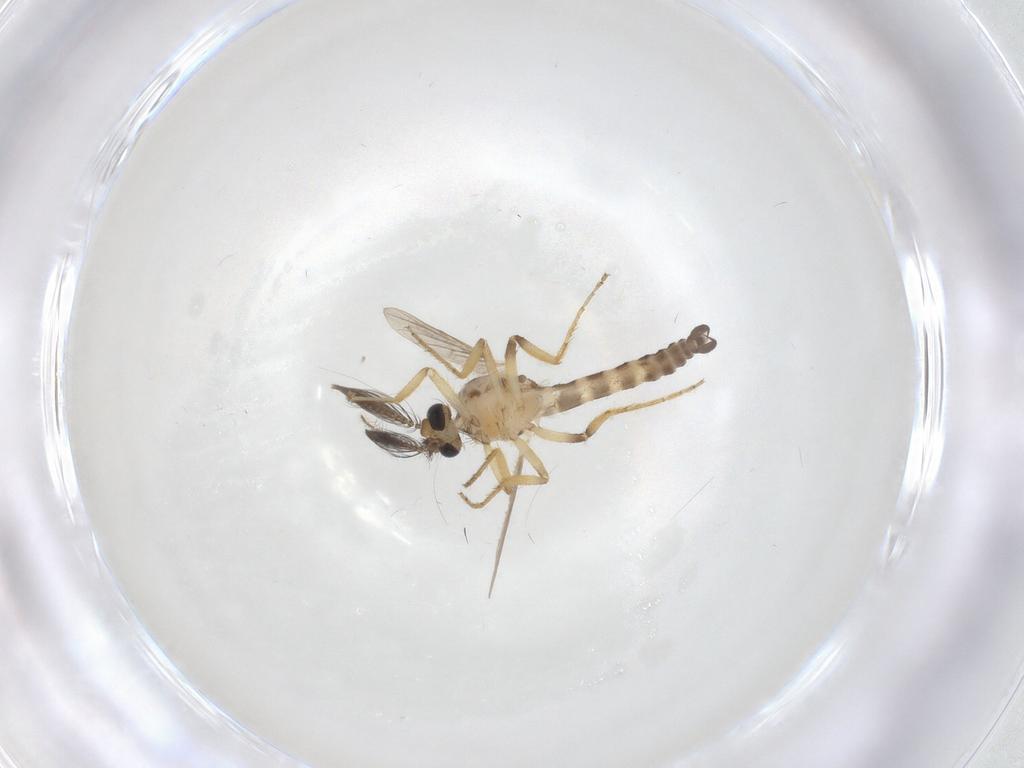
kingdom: Animalia
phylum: Arthropoda
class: Insecta
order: Diptera
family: Ceratopogonidae
